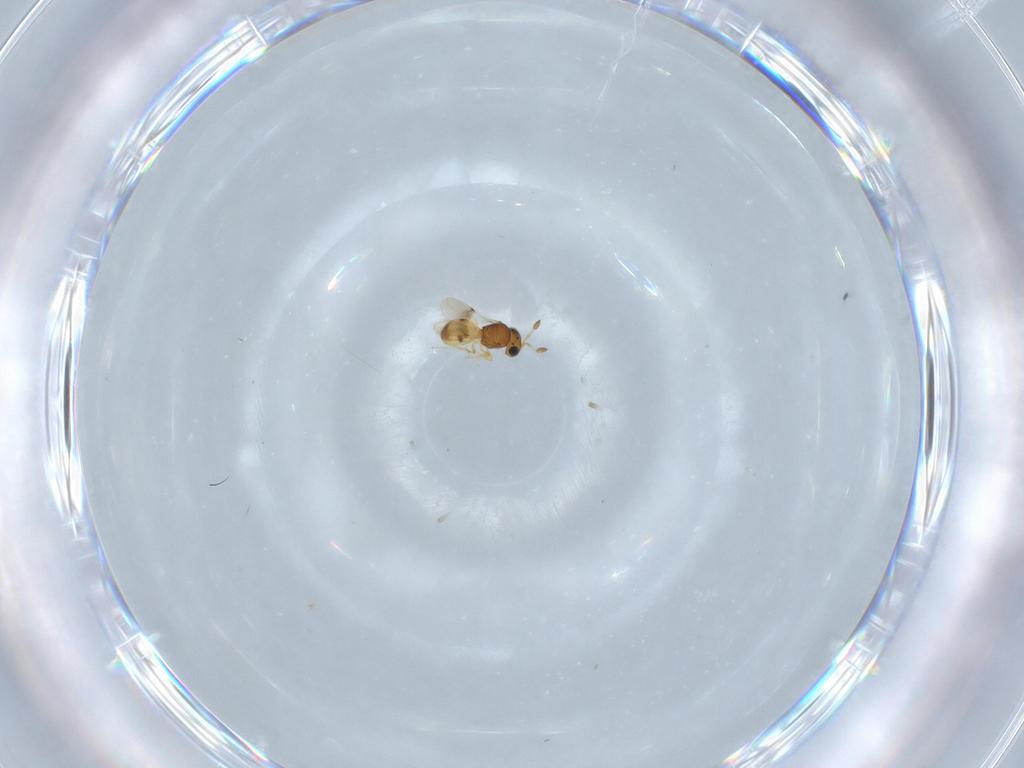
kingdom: Animalia
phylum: Arthropoda
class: Insecta
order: Hymenoptera
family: Scelionidae
